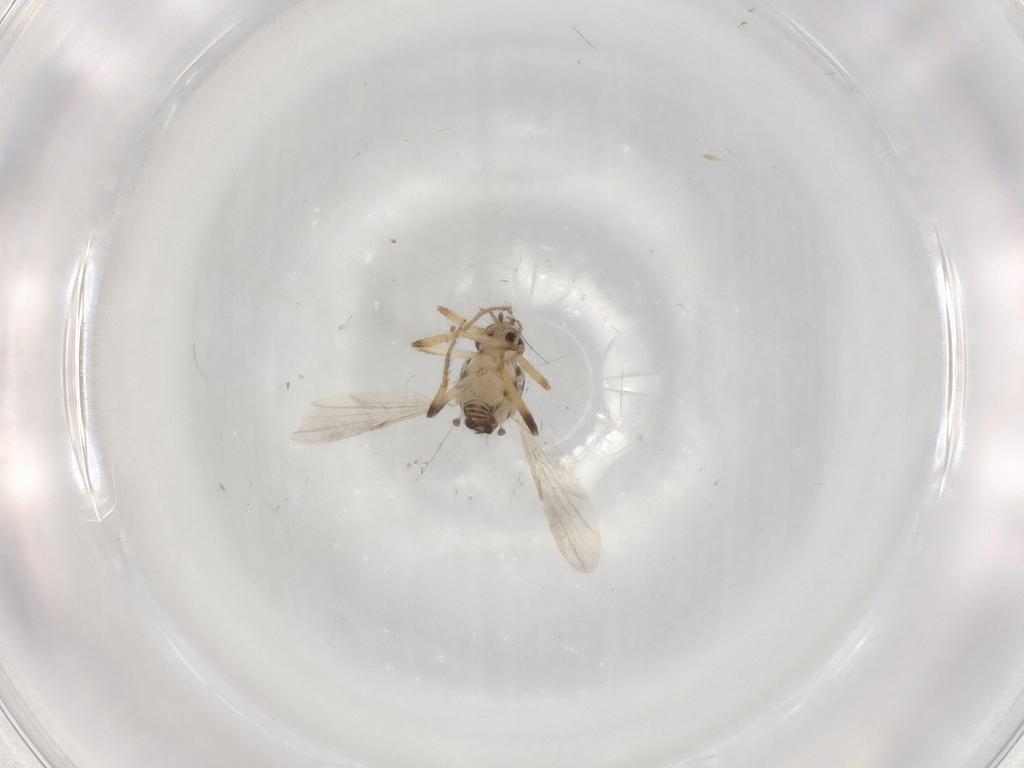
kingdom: Animalia
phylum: Arthropoda
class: Insecta
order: Diptera
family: Ceratopogonidae
